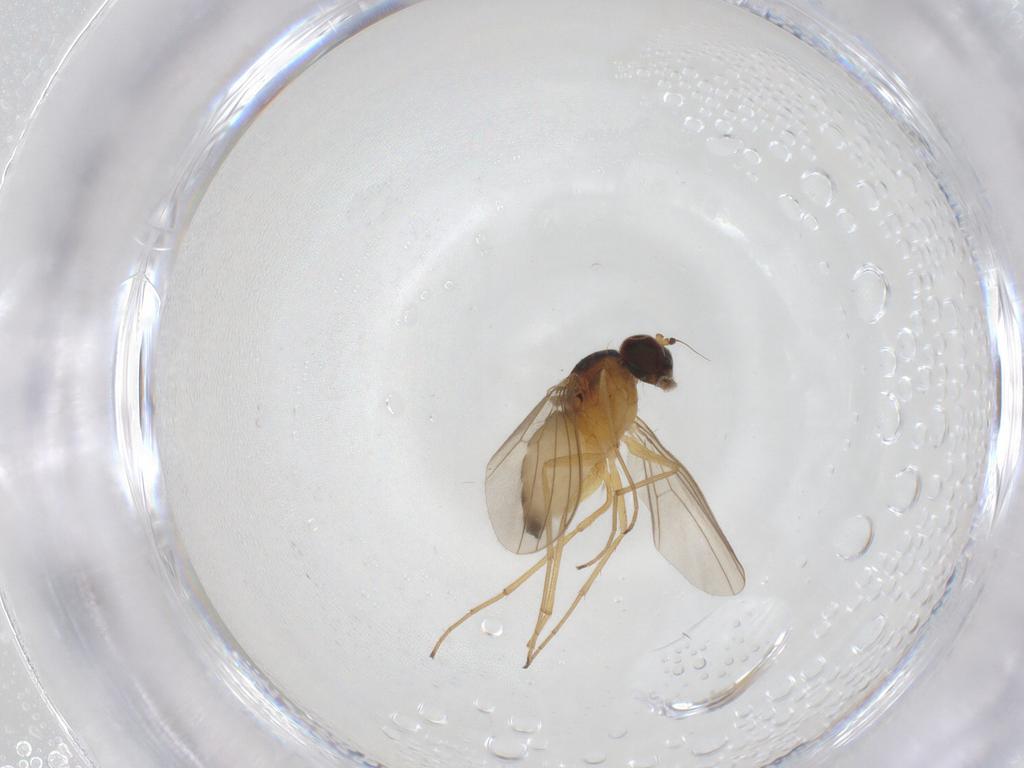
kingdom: Animalia
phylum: Arthropoda
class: Insecta
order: Diptera
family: Dolichopodidae
